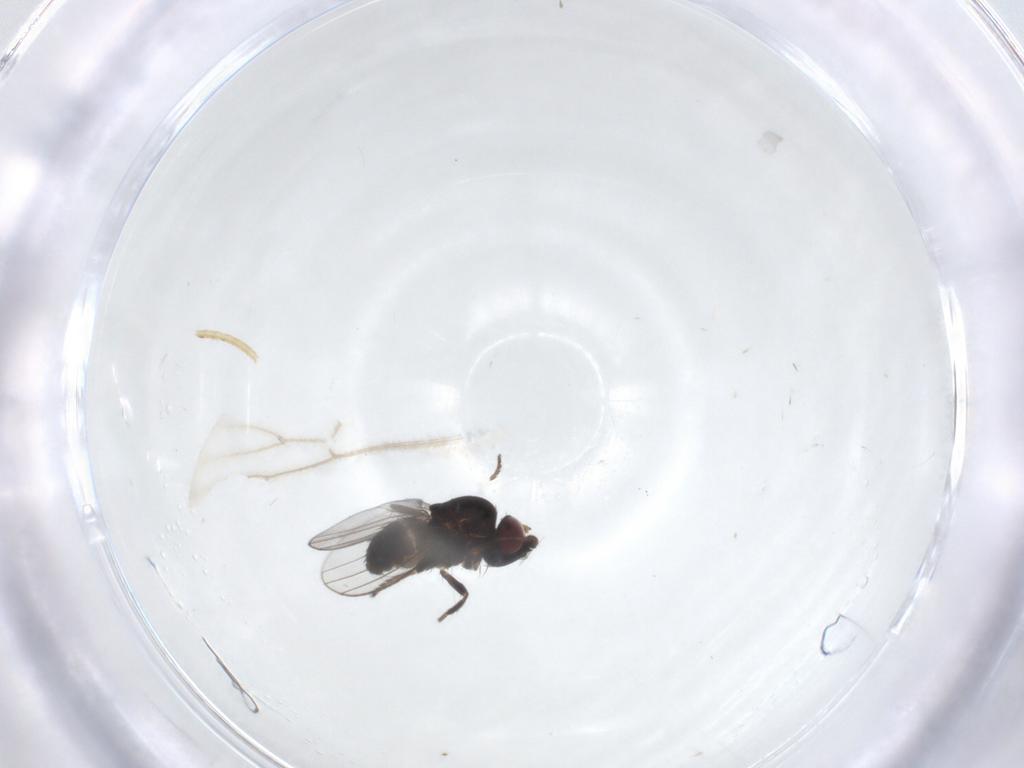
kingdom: Animalia
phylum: Arthropoda
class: Insecta
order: Diptera
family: Milichiidae
